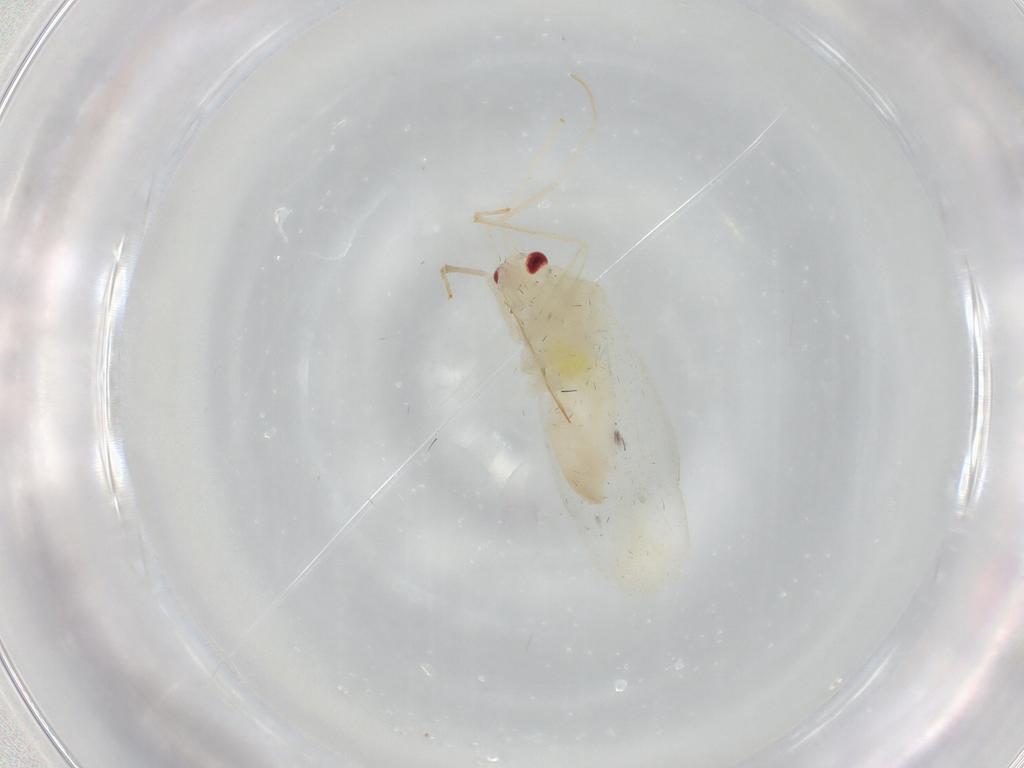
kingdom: Animalia
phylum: Arthropoda
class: Insecta
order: Hemiptera
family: Miridae
